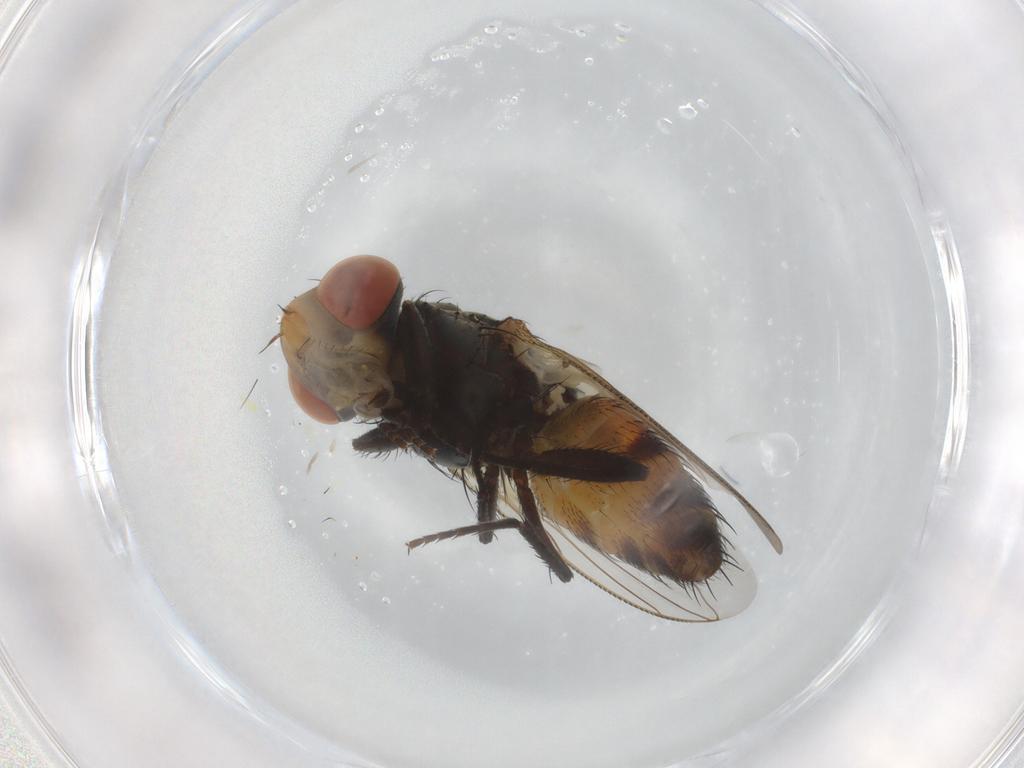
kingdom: Animalia
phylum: Arthropoda
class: Insecta
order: Diptera
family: Sarcophagidae
